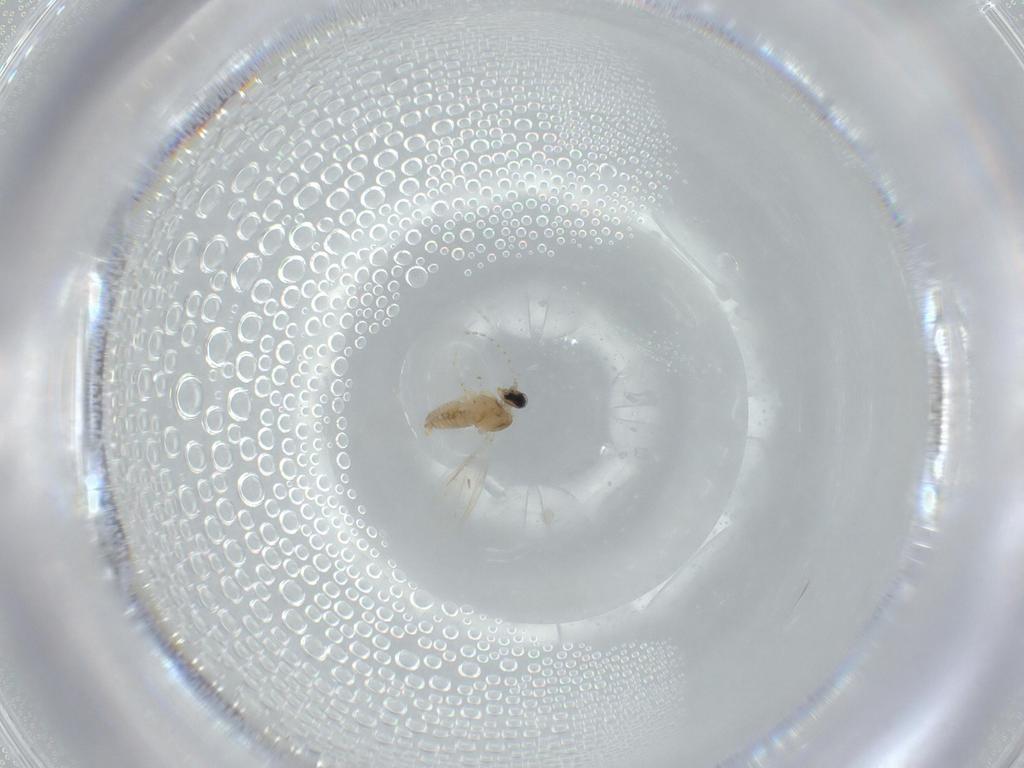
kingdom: Animalia
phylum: Arthropoda
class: Insecta
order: Diptera
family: Cecidomyiidae
